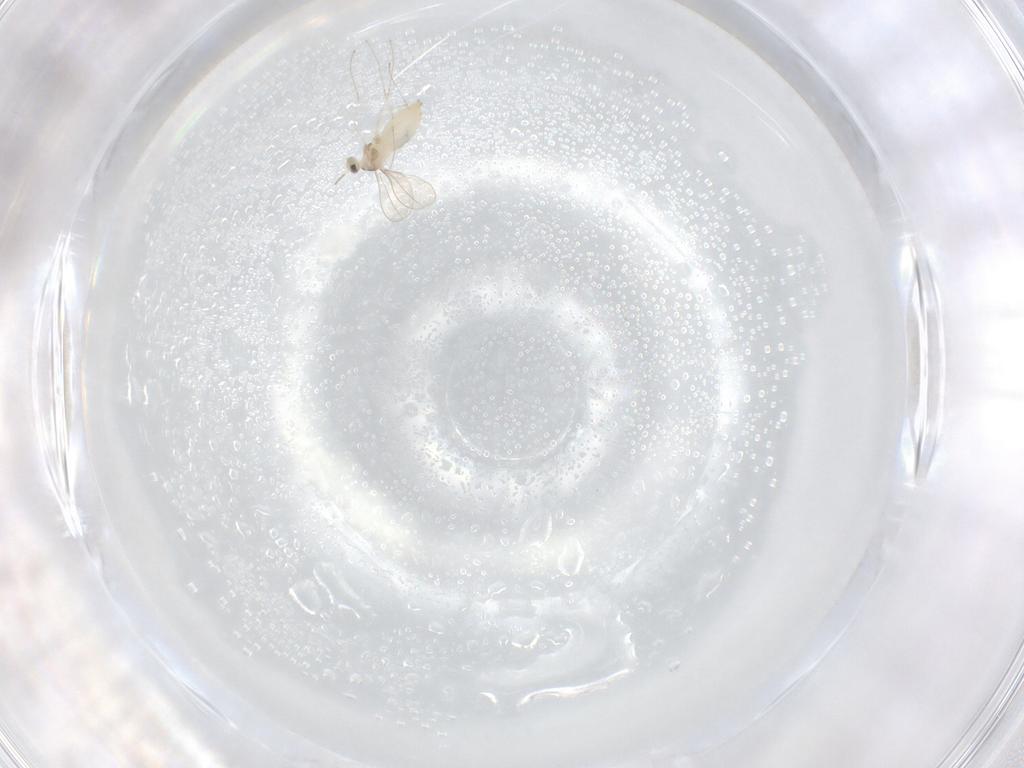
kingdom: Animalia
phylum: Arthropoda
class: Insecta
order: Diptera
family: Cecidomyiidae
